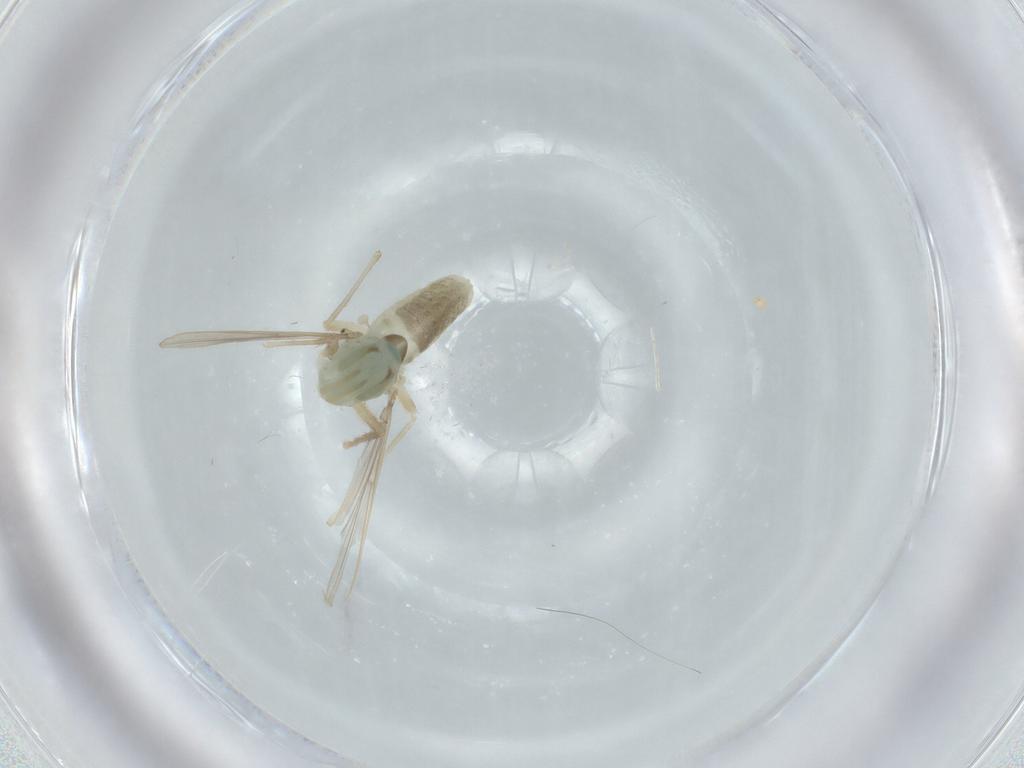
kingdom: Animalia
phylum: Arthropoda
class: Insecta
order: Diptera
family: Chironomidae
